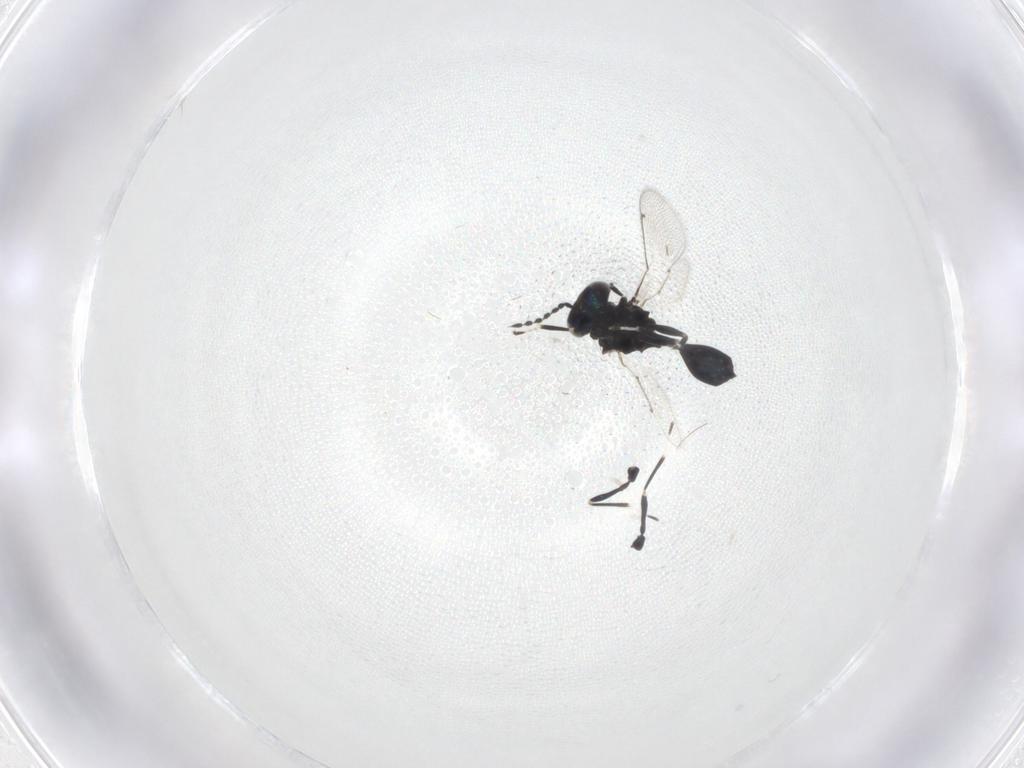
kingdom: Animalia
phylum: Arthropoda
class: Insecta
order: Hymenoptera
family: Eulophidae
